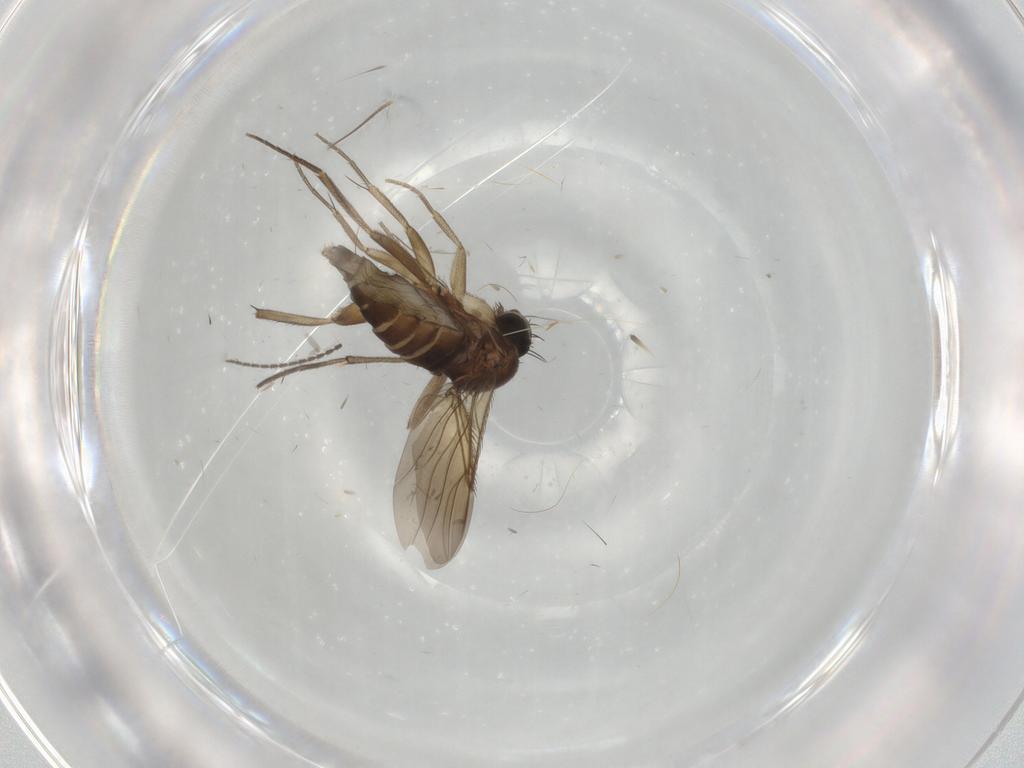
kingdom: Animalia
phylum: Arthropoda
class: Insecta
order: Diptera
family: Phoridae
